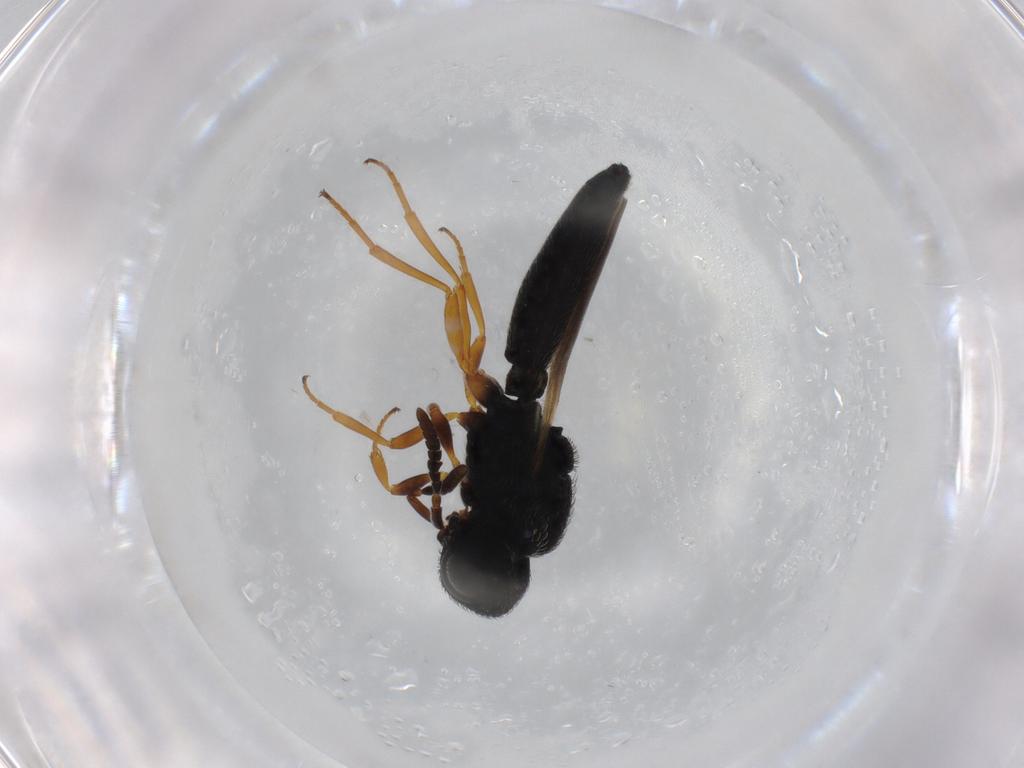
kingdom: Animalia
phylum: Arthropoda
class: Insecta
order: Hymenoptera
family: Scelionidae
